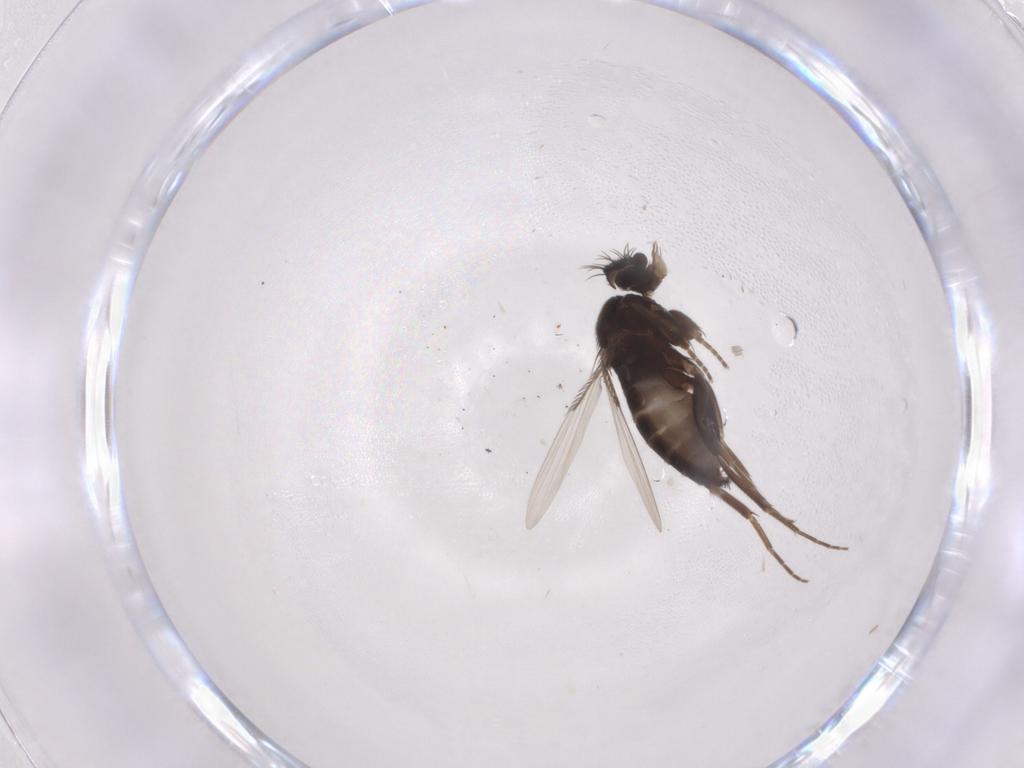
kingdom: Animalia
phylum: Arthropoda
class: Insecta
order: Diptera
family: Phoridae
